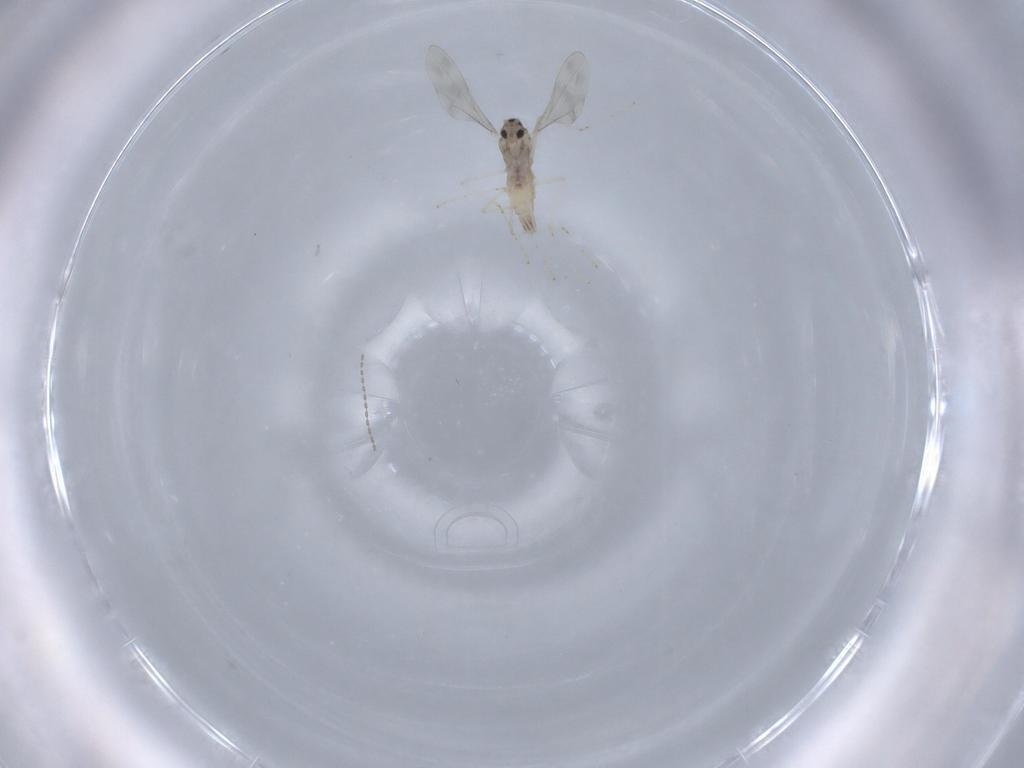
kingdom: Animalia
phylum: Arthropoda
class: Insecta
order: Diptera
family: Cecidomyiidae
